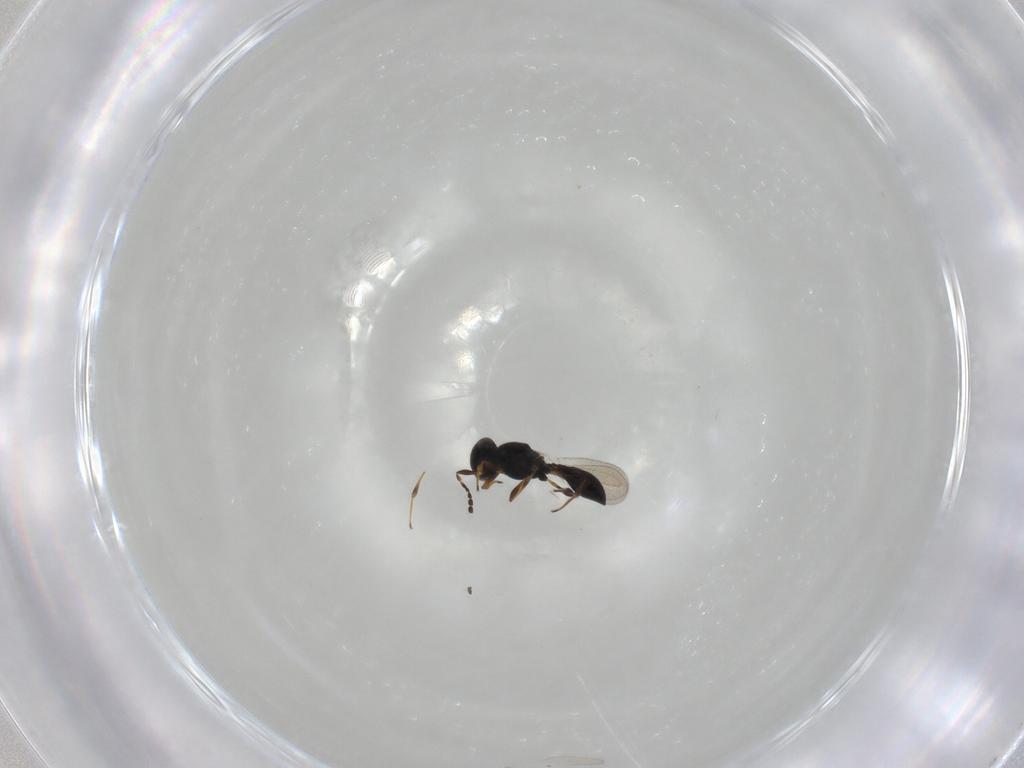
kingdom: Animalia
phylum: Arthropoda
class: Insecta
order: Hymenoptera
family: Platygastridae
